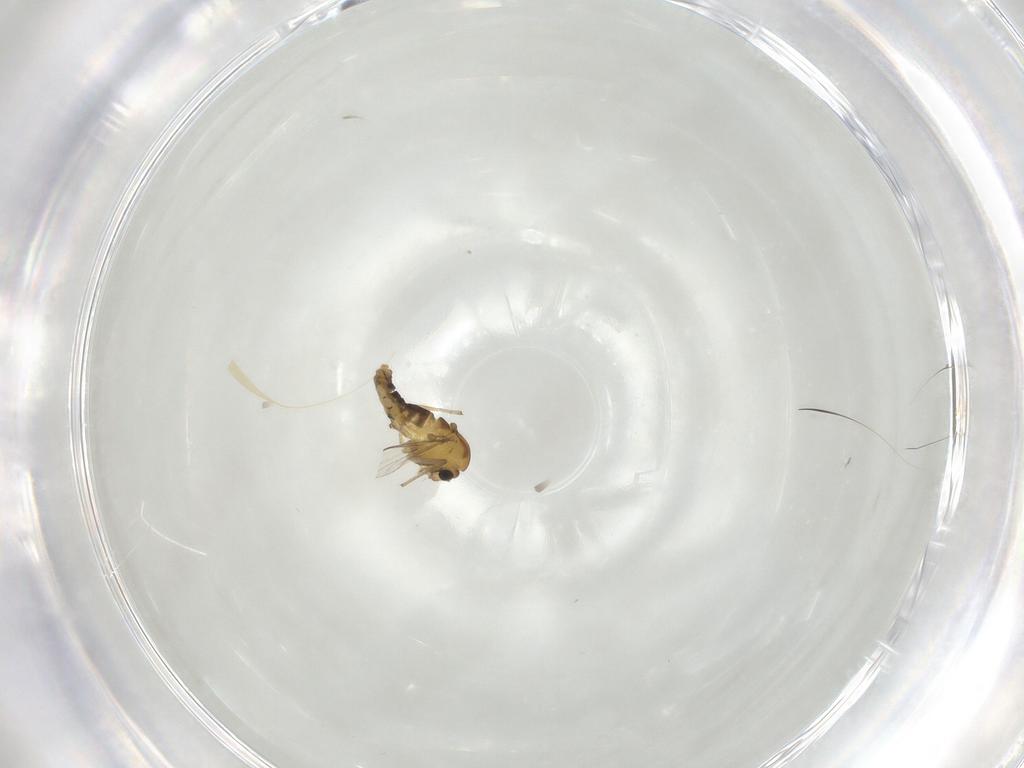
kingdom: Animalia
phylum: Arthropoda
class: Insecta
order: Diptera
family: Chironomidae
